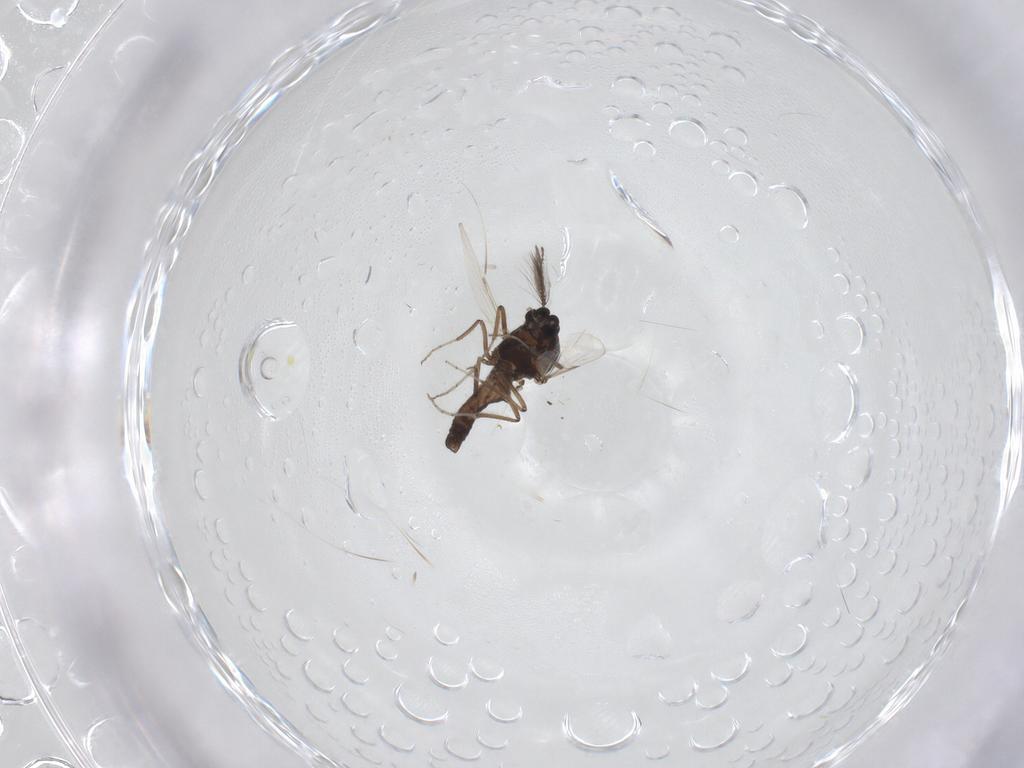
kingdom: Animalia
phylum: Arthropoda
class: Insecta
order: Diptera
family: Ceratopogonidae
